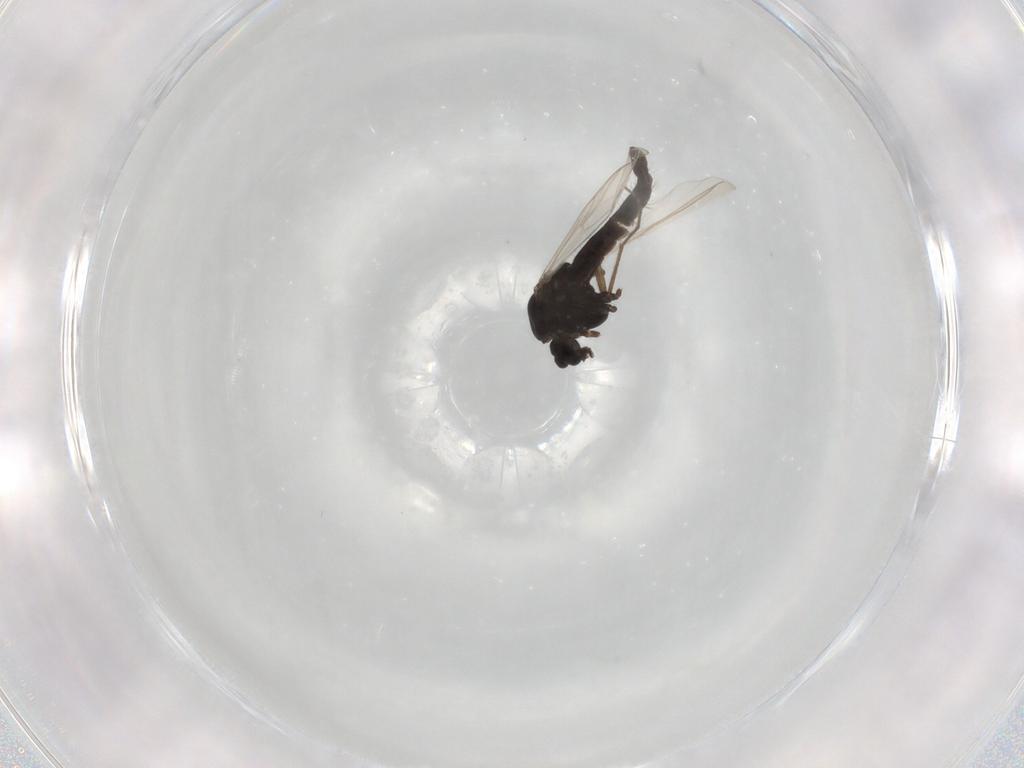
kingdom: Animalia
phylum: Arthropoda
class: Insecta
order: Diptera
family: Chironomidae
